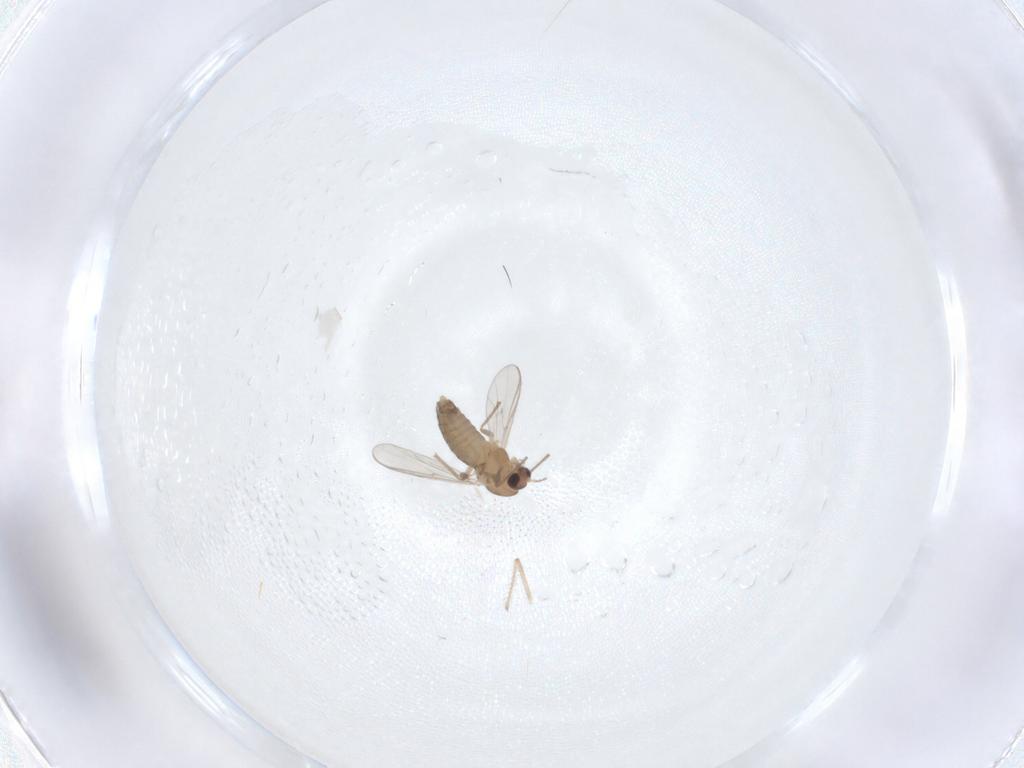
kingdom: Animalia
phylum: Arthropoda
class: Insecta
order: Diptera
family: Chironomidae
